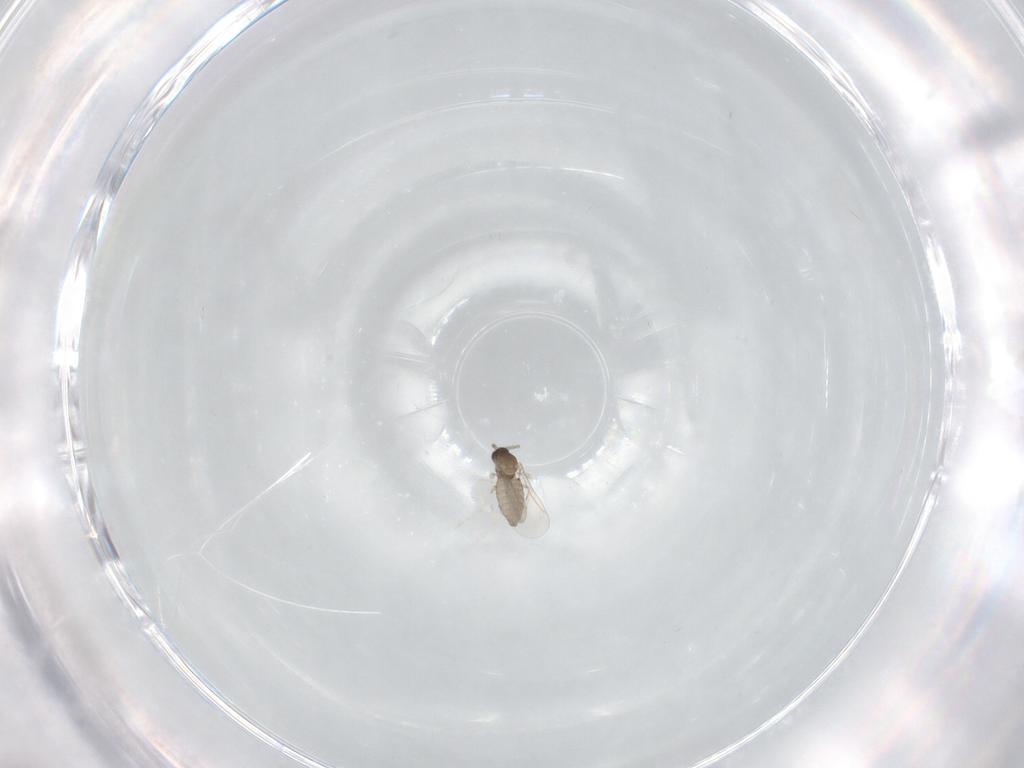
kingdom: Animalia
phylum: Arthropoda
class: Insecta
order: Diptera
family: Cecidomyiidae
